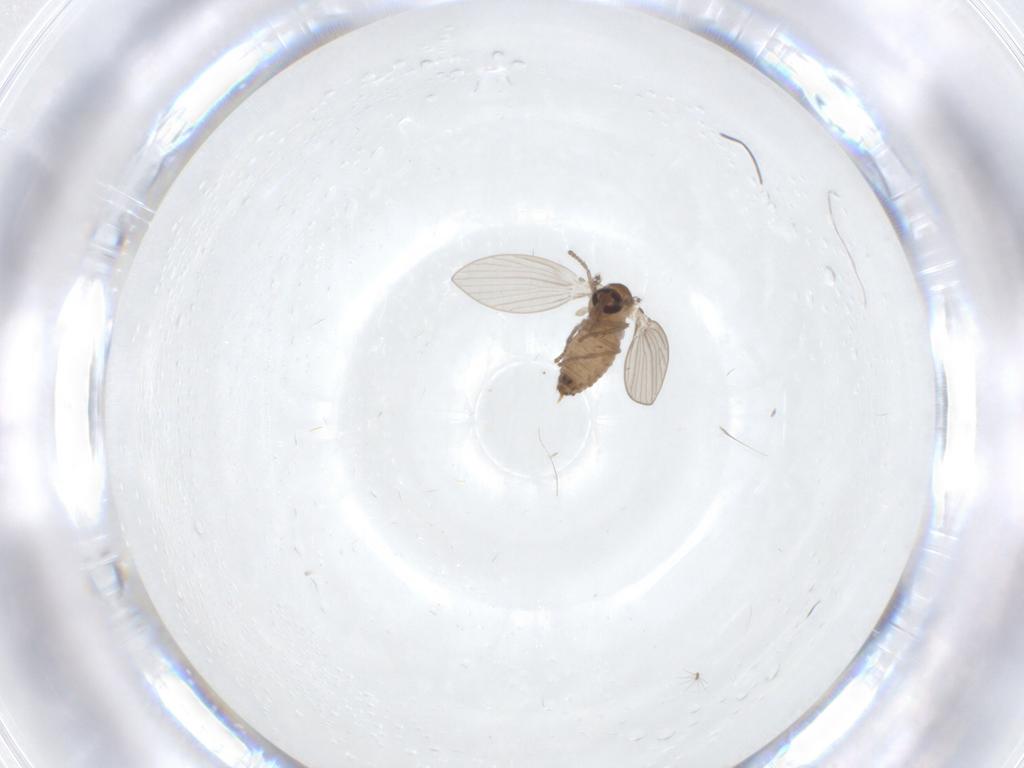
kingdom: Animalia
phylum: Arthropoda
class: Insecta
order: Diptera
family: Psychodidae
